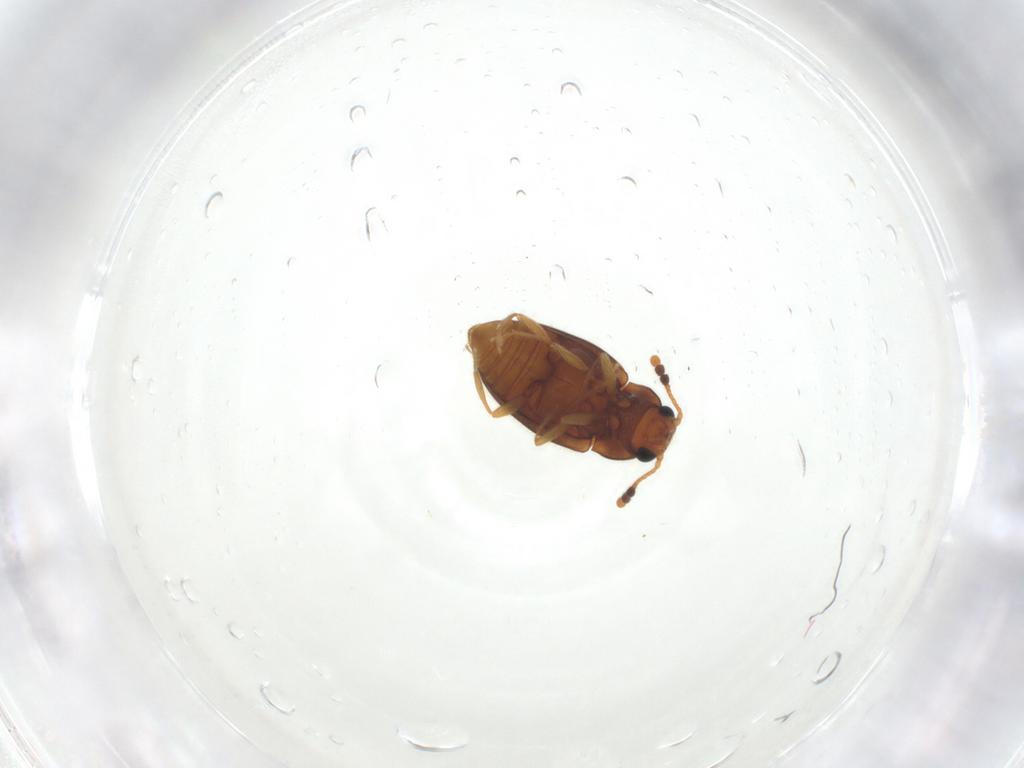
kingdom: Animalia
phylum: Arthropoda
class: Insecta
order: Coleoptera
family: Erotylidae
